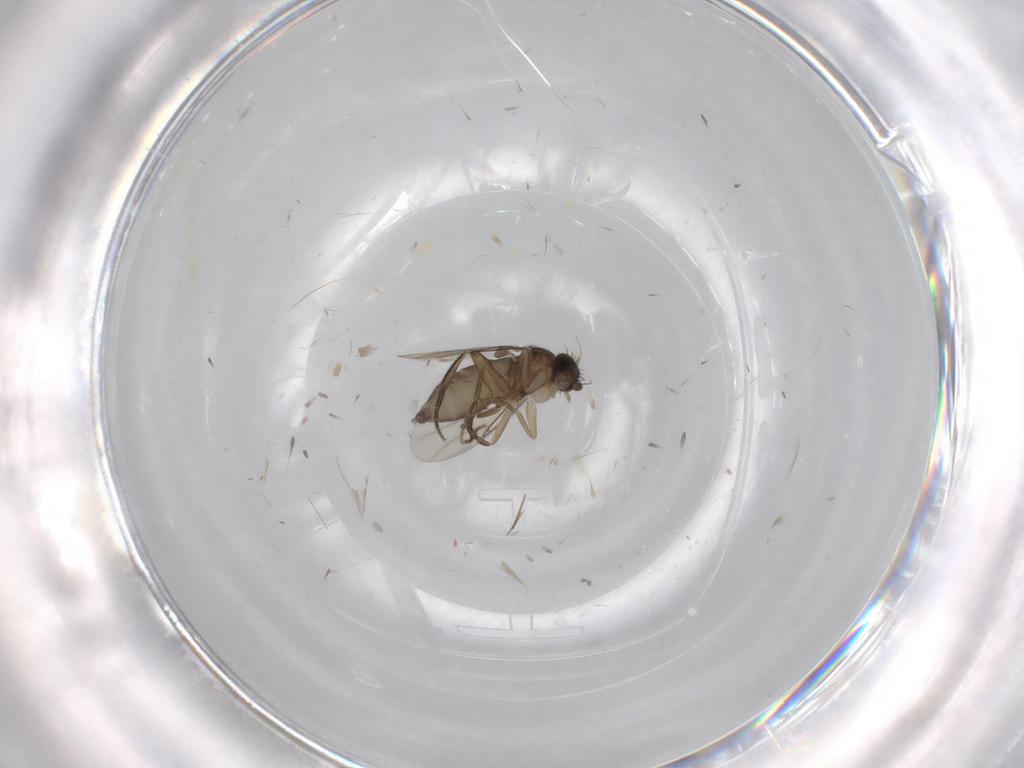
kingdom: Animalia
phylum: Arthropoda
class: Insecta
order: Diptera
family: Phoridae
